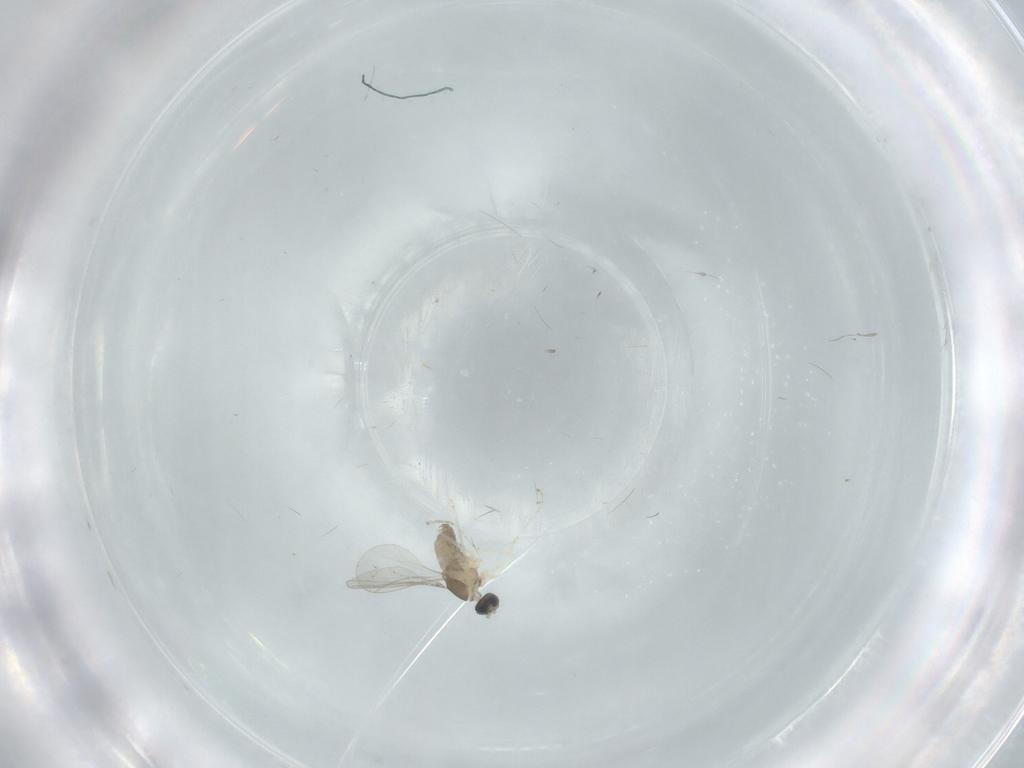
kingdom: Animalia
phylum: Arthropoda
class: Insecta
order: Diptera
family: Cecidomyiidae
